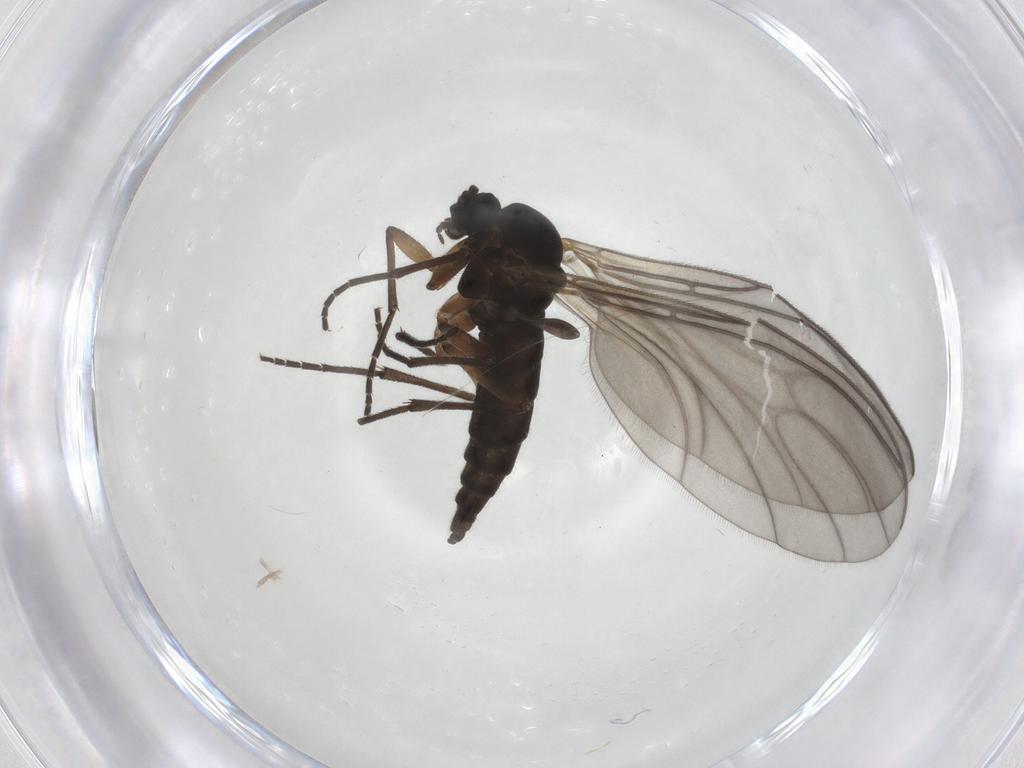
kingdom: Animalia
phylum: Arthropoda
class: Insecta
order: Diptera
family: Sciaridae
